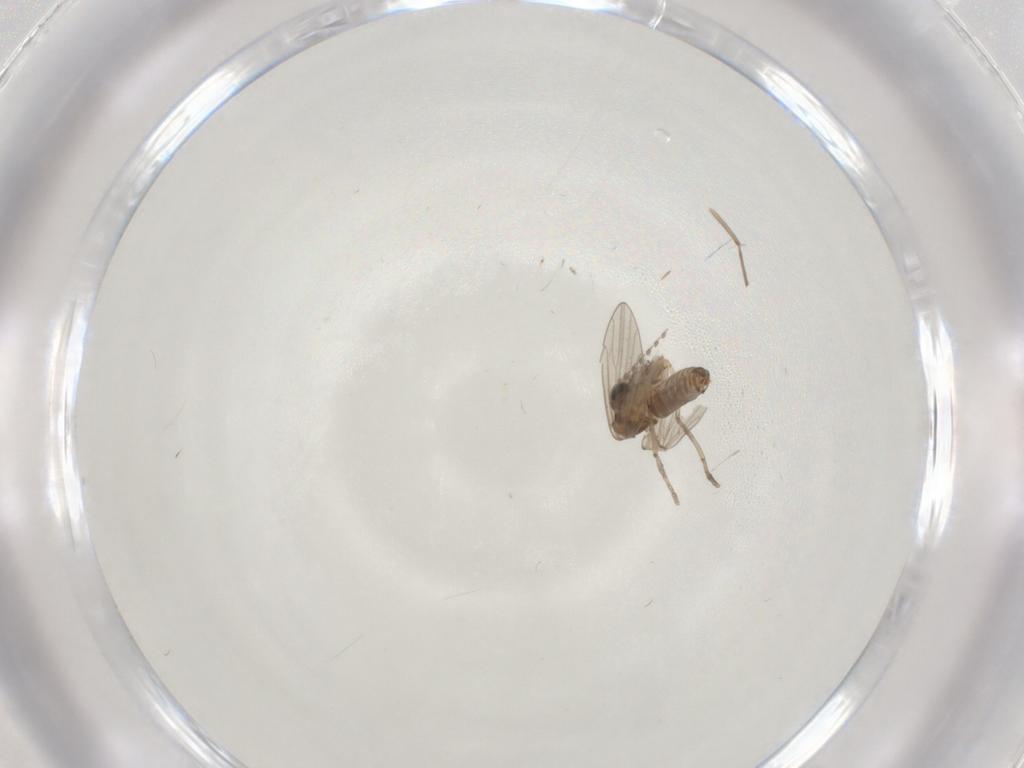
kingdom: Animalia
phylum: Arthropoda
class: Insecta
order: Diptera
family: Psychodidae
